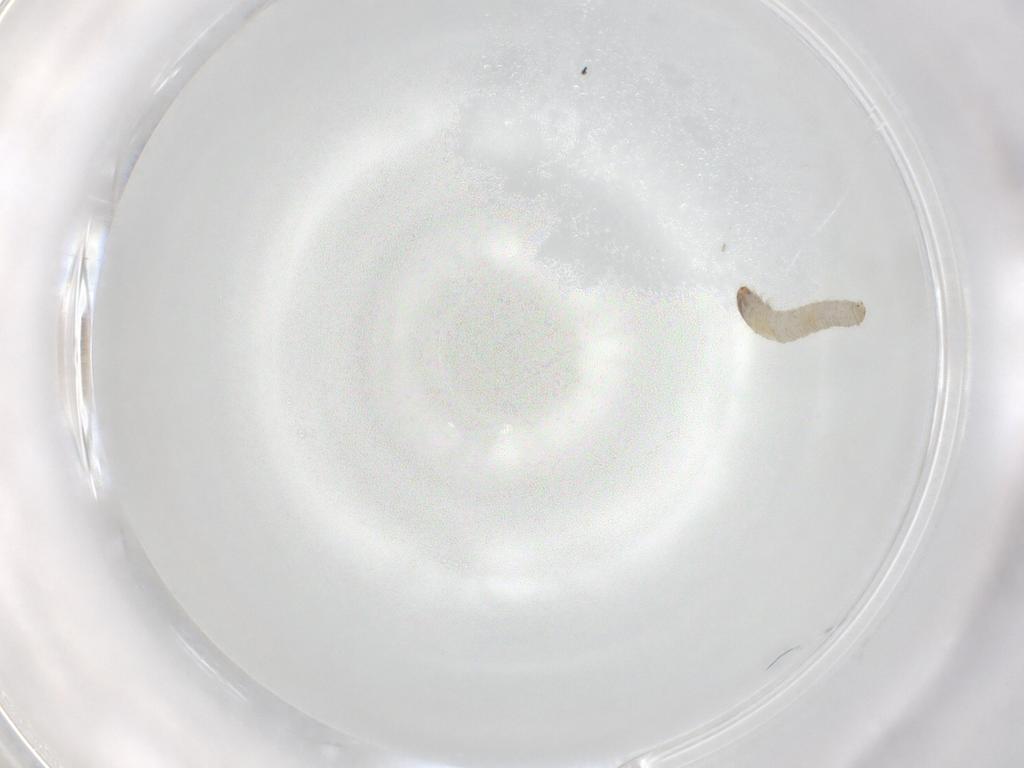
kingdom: Animalia
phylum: Arthropoda
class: Insecta
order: Lepidoptera
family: Tineidae
